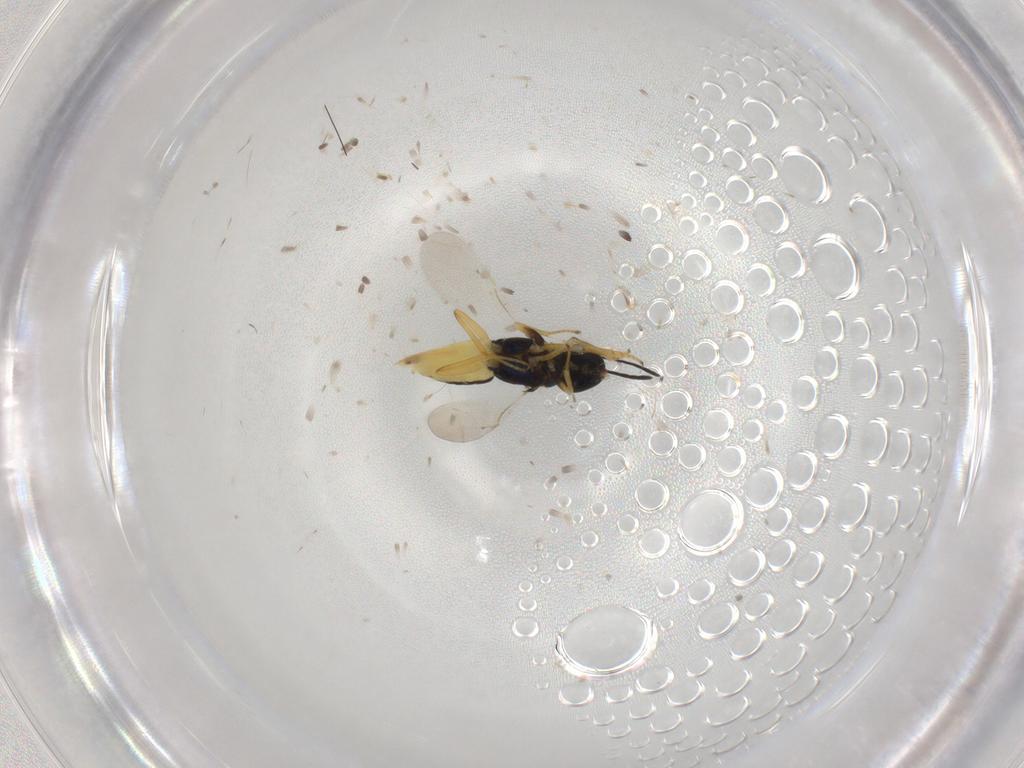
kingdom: Animalia
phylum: Arthropoda
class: Insecta
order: Hymenoptera
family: Encyrtidae
